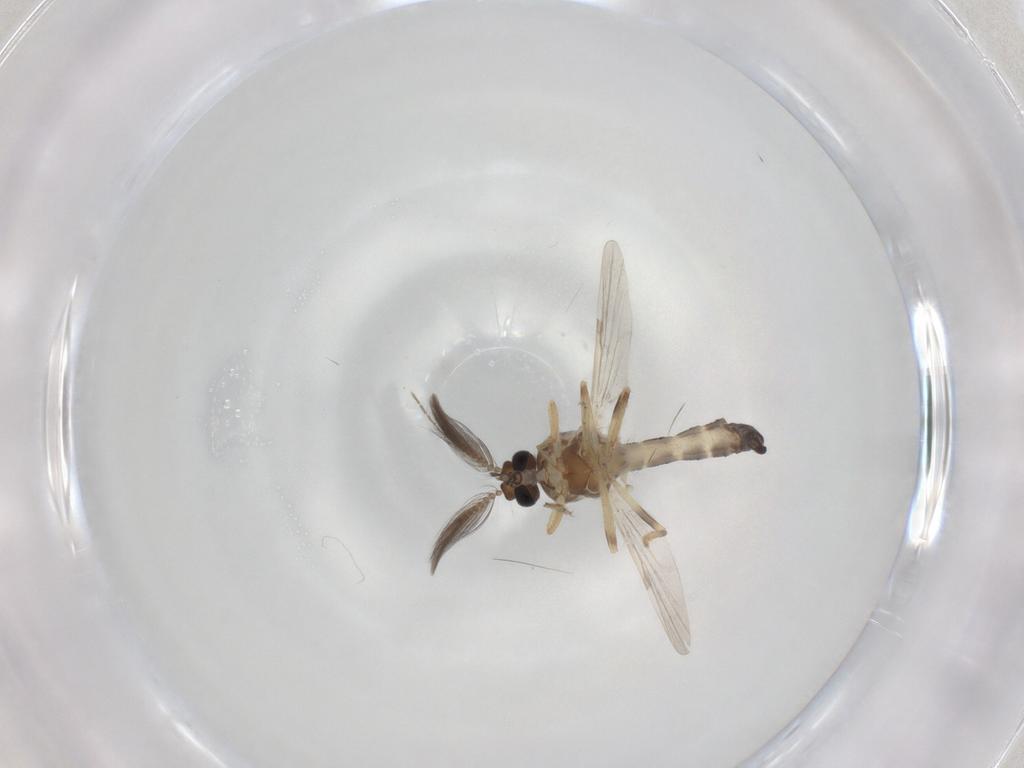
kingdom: Animalia
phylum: Arthropoda
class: Insecta
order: Diptera
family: Ceratopogonidae
